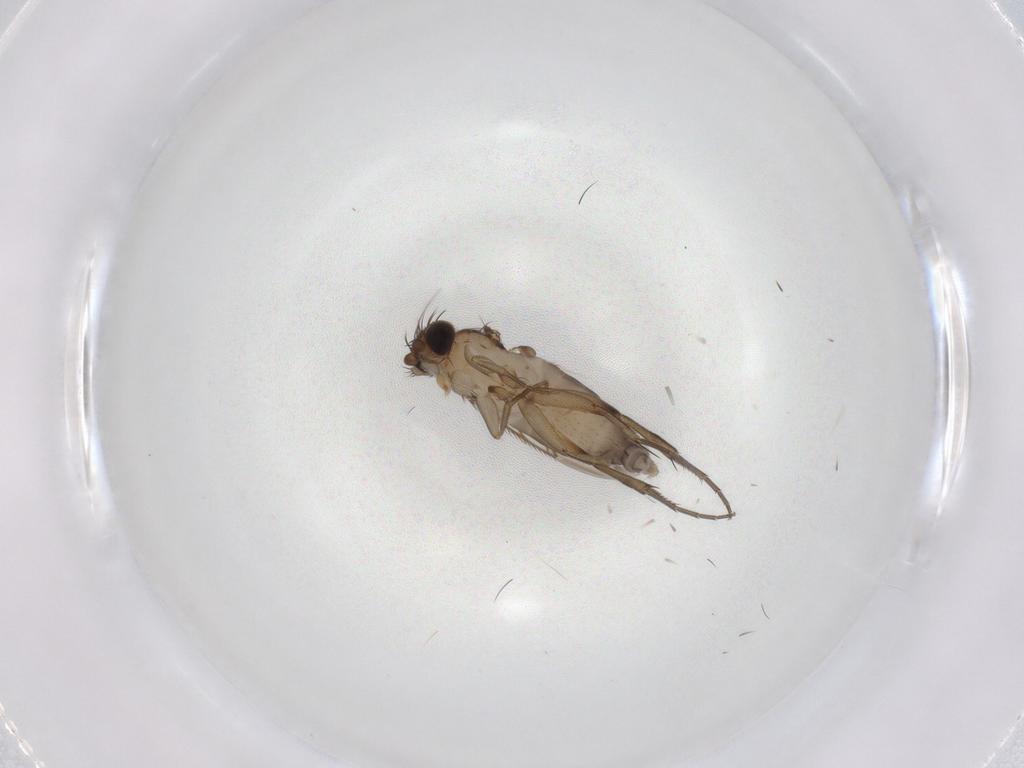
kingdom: Animalia
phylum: Arthropoda
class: Insecta
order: Diptera
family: Phoridae
